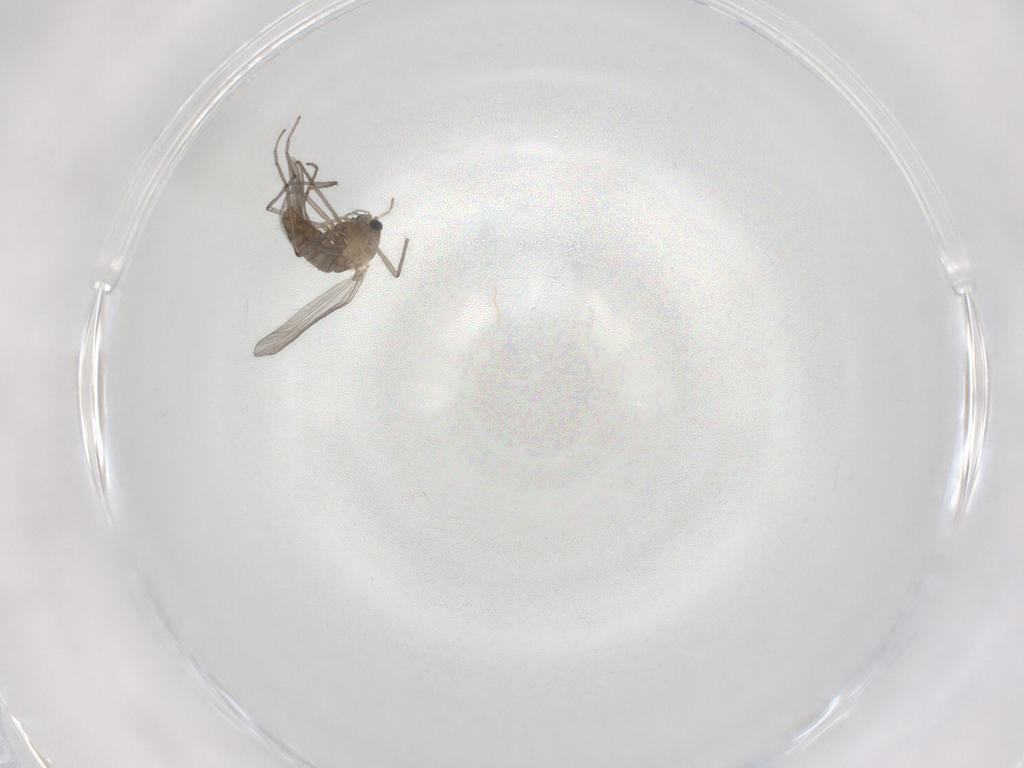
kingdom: Animalia
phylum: Arthropoda
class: Insecta
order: Diptera
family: Chironomidae
